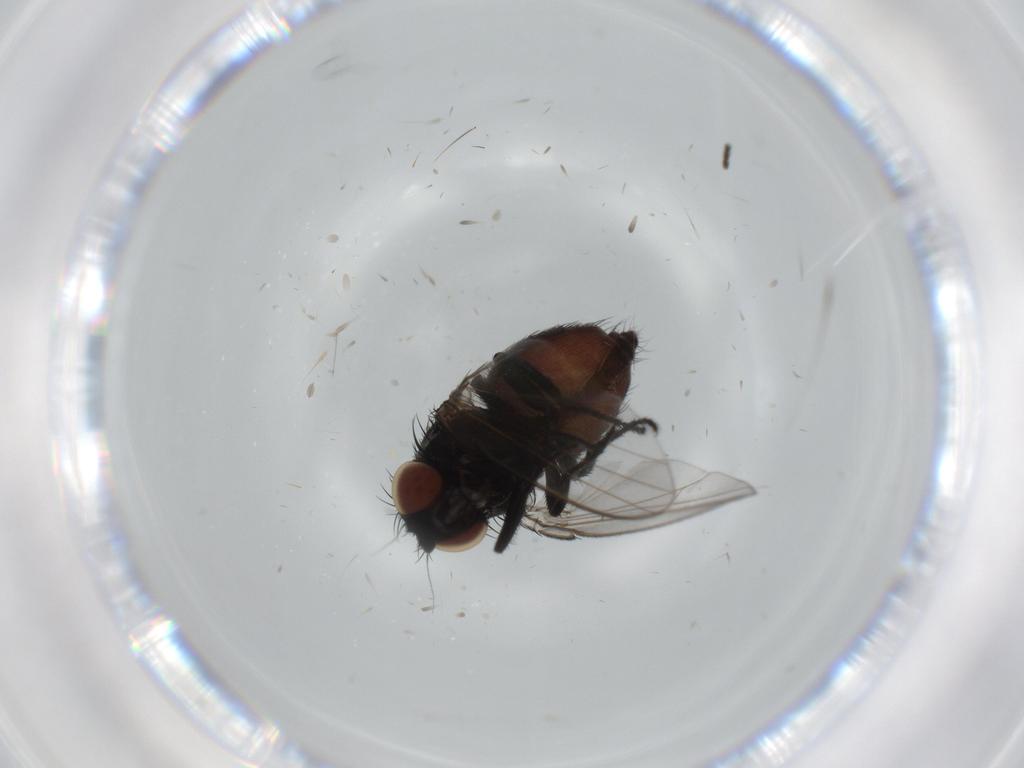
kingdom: Animalia
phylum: Arthropoda
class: Insecta
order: Diptera
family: Milichiidae
